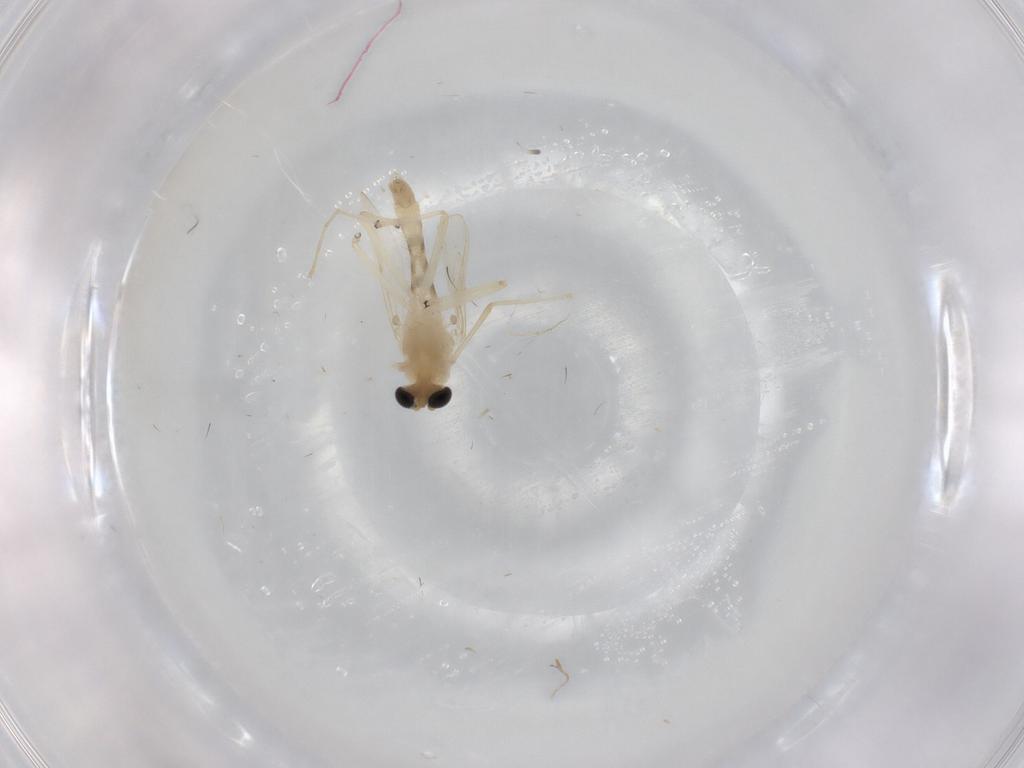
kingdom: Animalia
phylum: Arthropoda
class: Insecta
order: Diptera
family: Chironomidae
